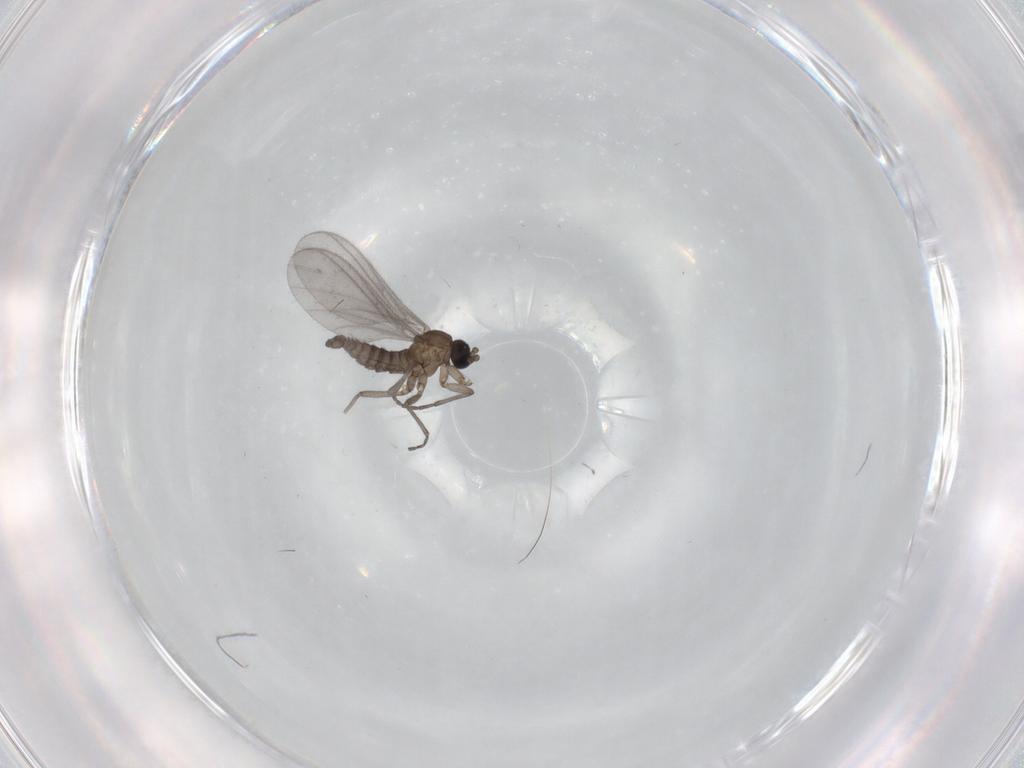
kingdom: Animalia
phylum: Arthropoda
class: Insecta
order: Diptera
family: Sciaridae
